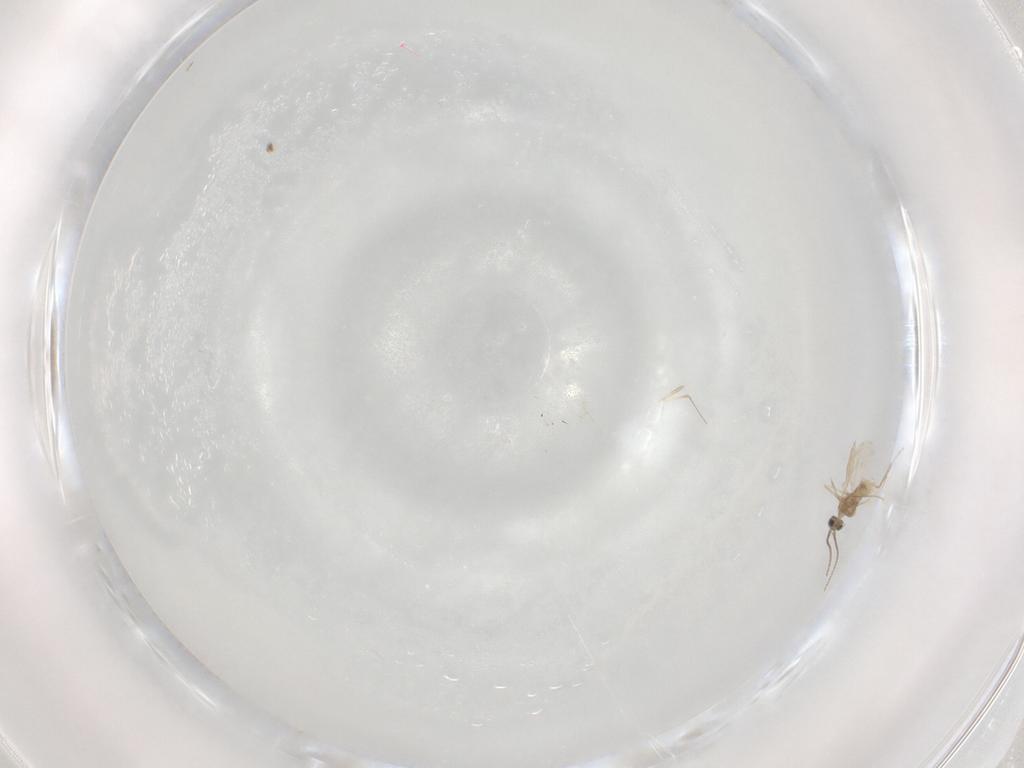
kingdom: Animalia
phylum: Arthropoda
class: Insecta
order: Diptera
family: Cecidomyiidae
